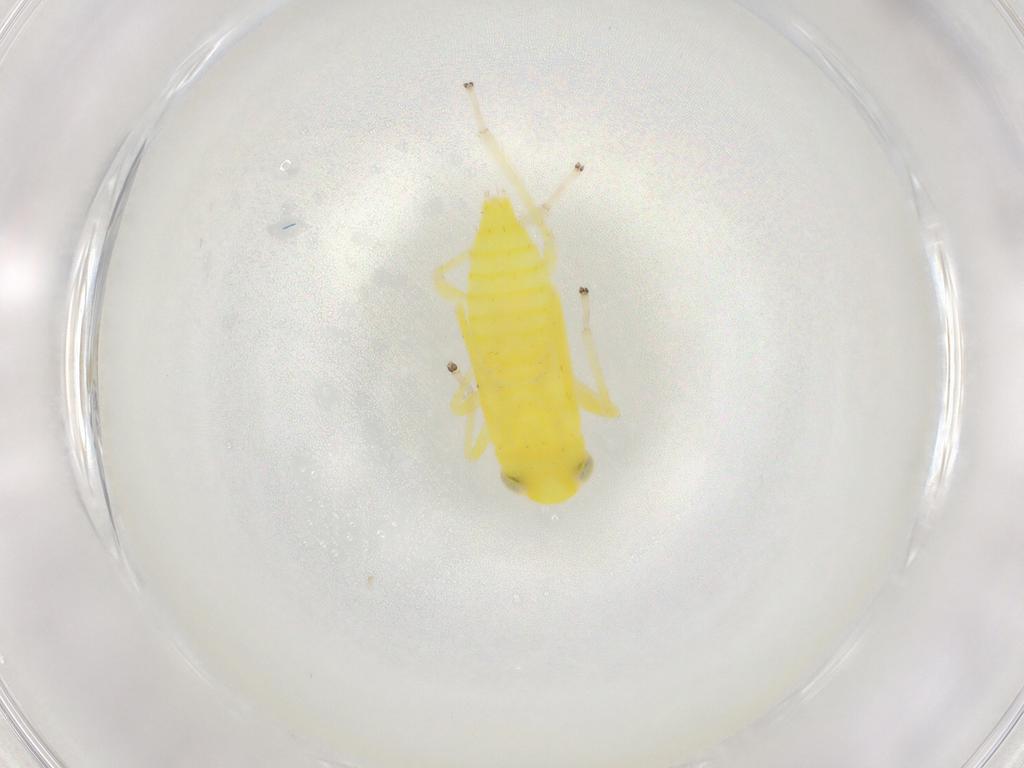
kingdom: Animalia
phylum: Arthropoda
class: Insecta
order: Hemiptera
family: Cicadellidae
